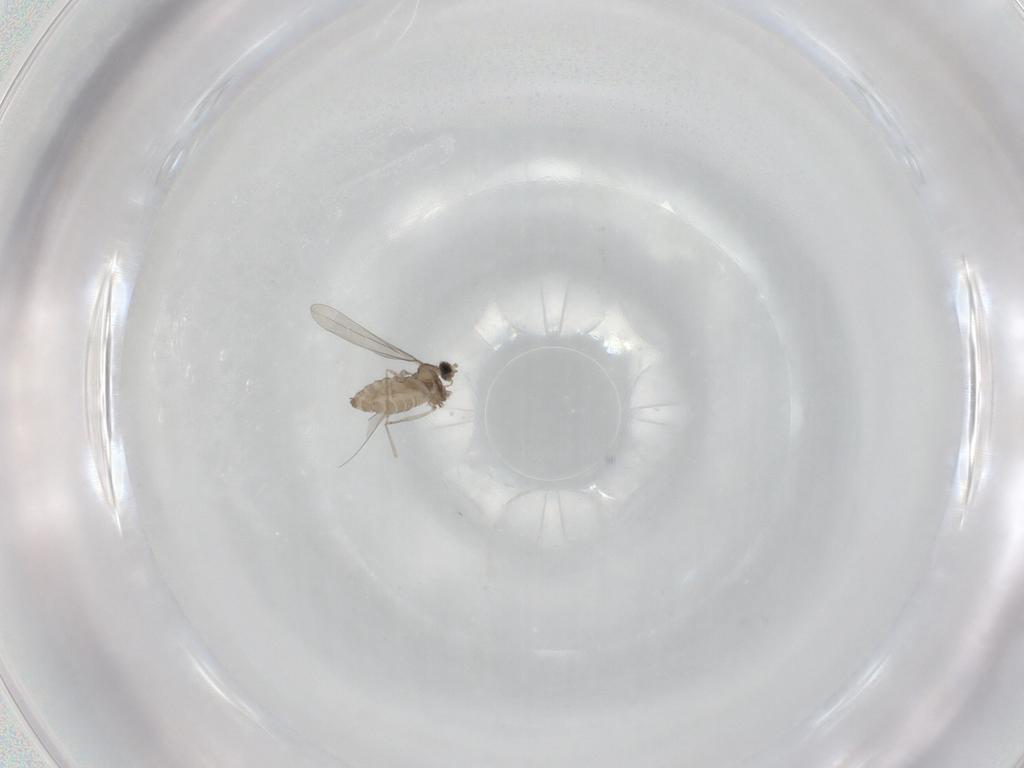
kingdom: Animalia
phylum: Arthropoda
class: Insecta
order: Diptera
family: Cecidomyiidae
